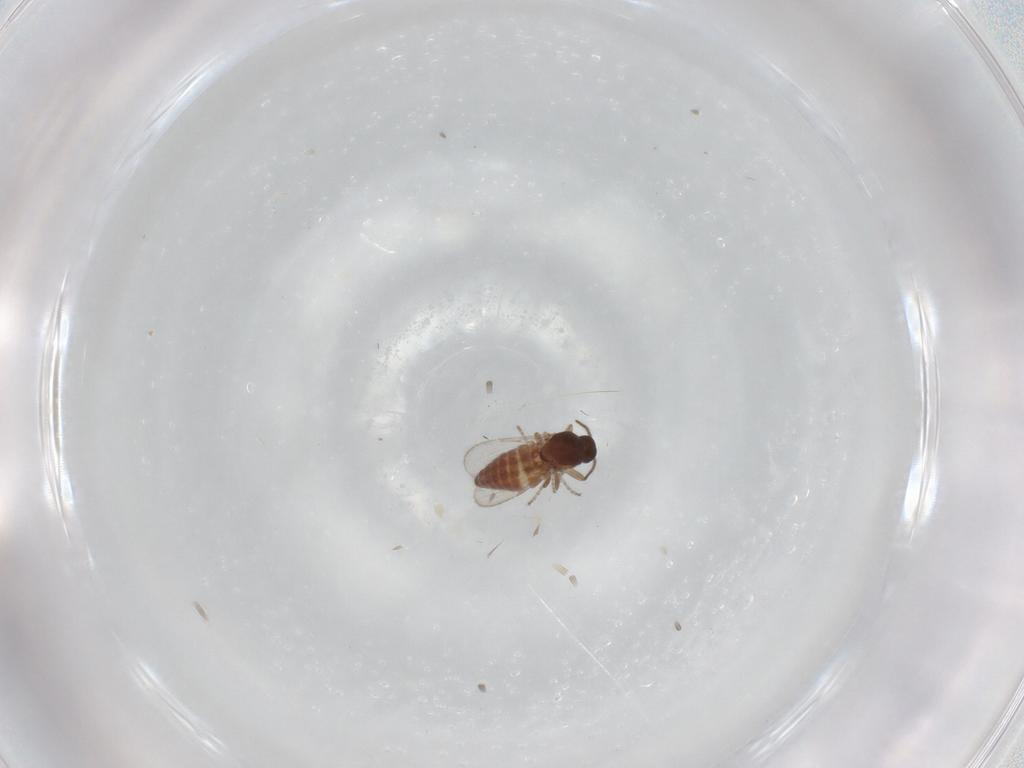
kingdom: Animalia
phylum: Arthropoda
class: Insecta
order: Diptera
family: Ceratopogonidae
